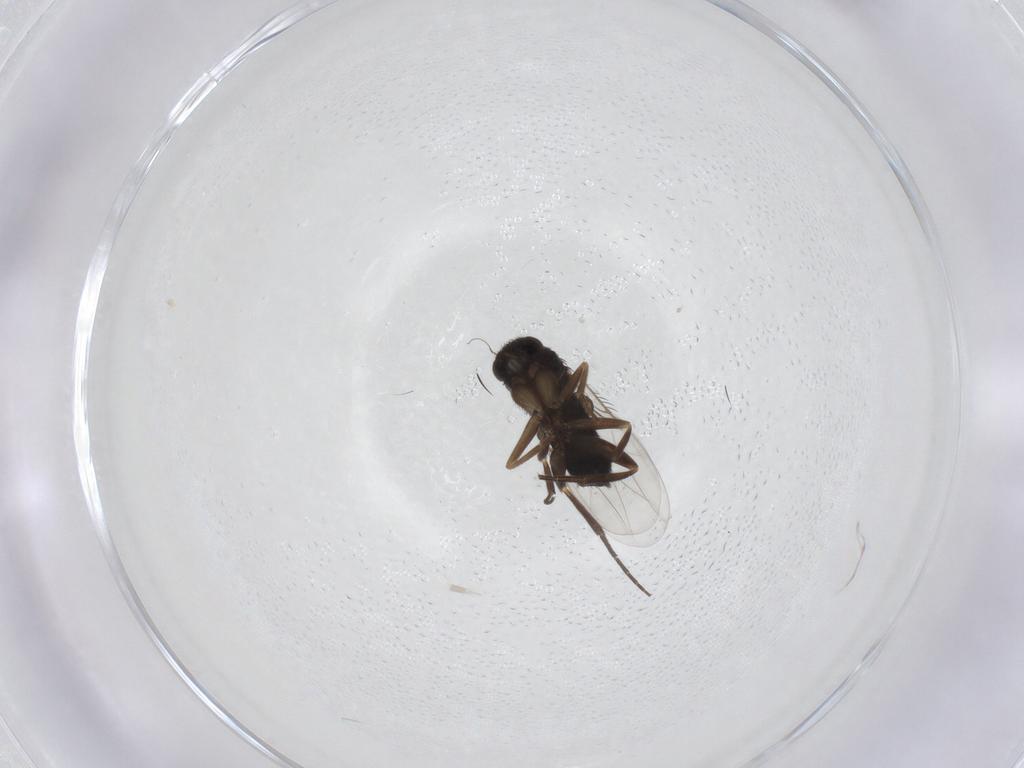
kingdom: Animalia
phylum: Arthropoda
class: Insecta
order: Diptera
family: Phoridae
